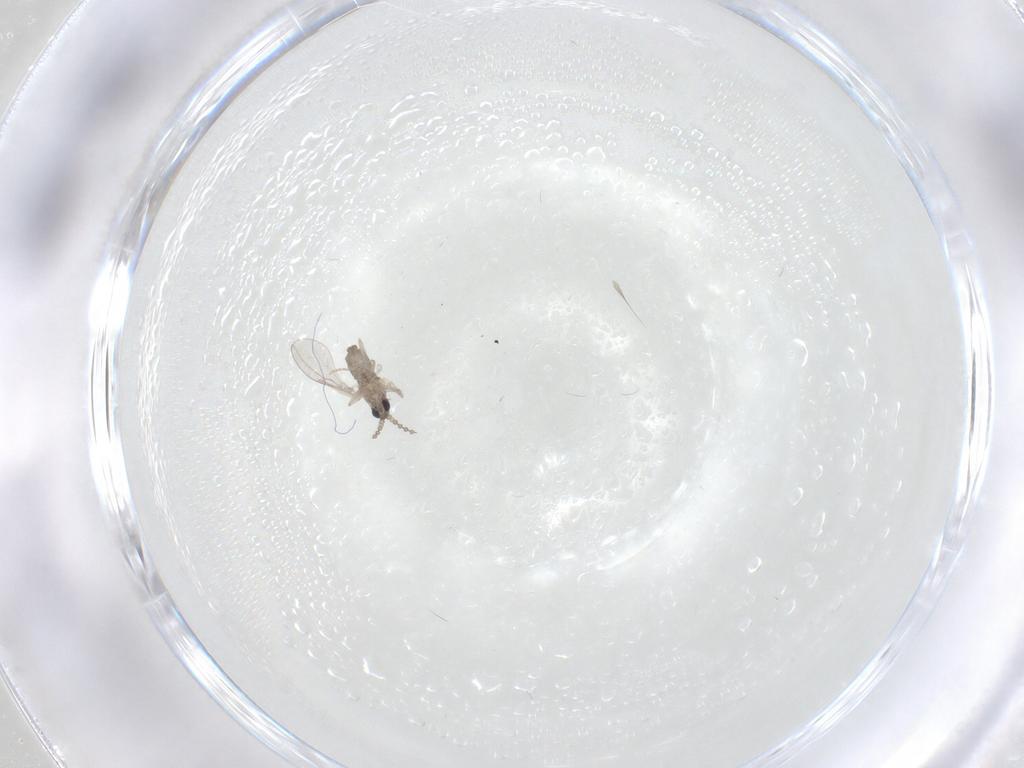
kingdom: Animalia
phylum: Arthropoda
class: Insecta
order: Diptera
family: Cecidomyiidae
